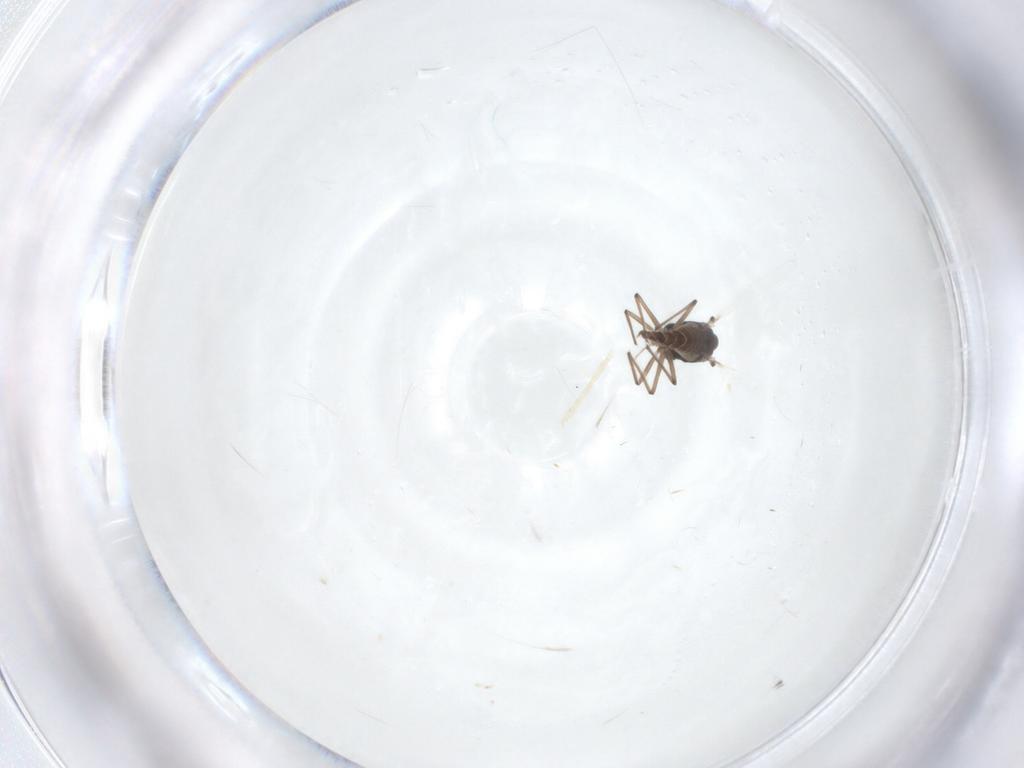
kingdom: Animalia
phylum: Arthropoda
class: Insecta
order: Diptera
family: Chironomidae
